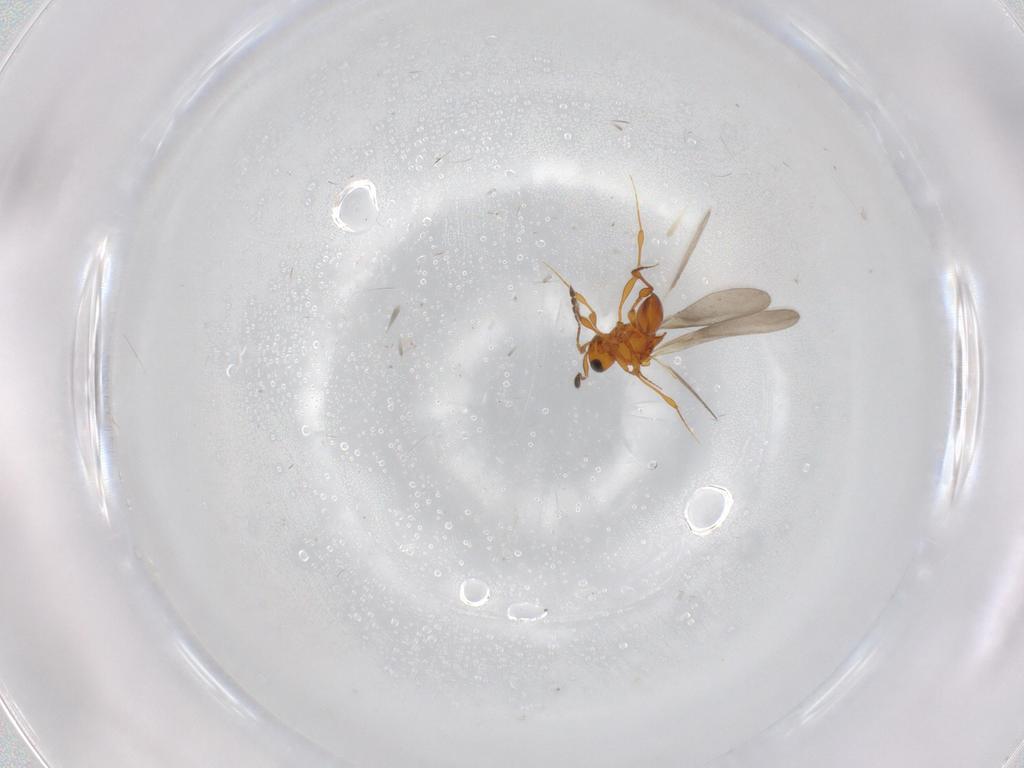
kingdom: Animalia
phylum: Arthropoda
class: Insecta
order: Hymenoptera
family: Platygastridae
